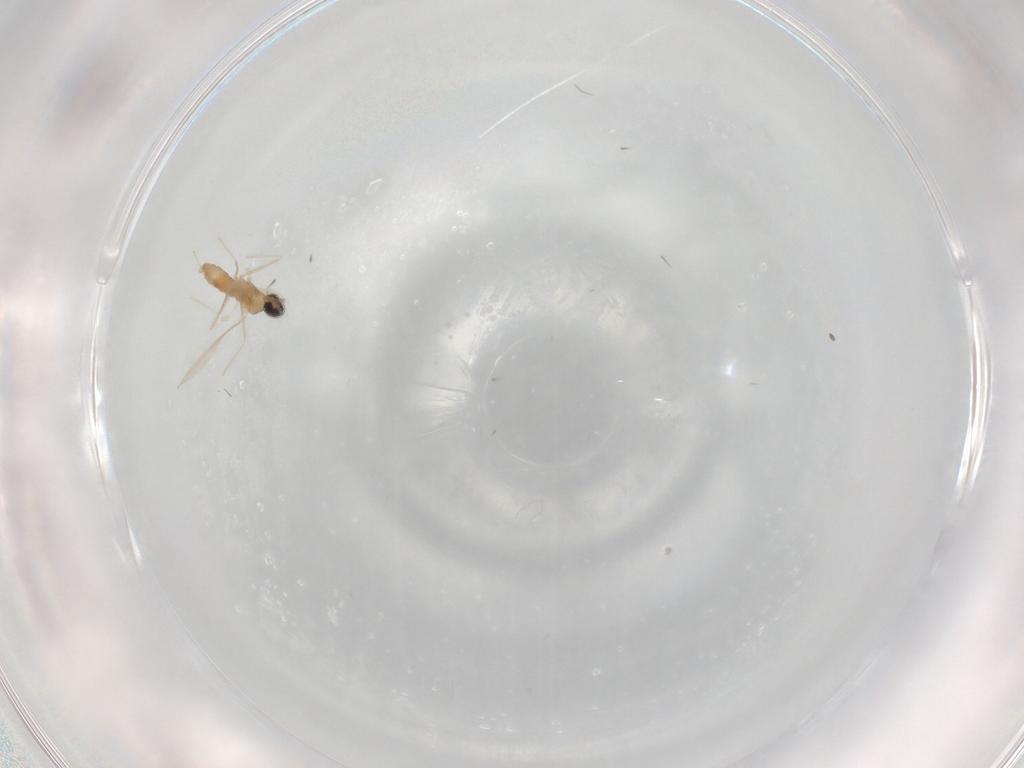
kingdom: Animalia
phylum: Arthropoda
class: Insecta
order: Diptera
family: Cecidomyiidae
